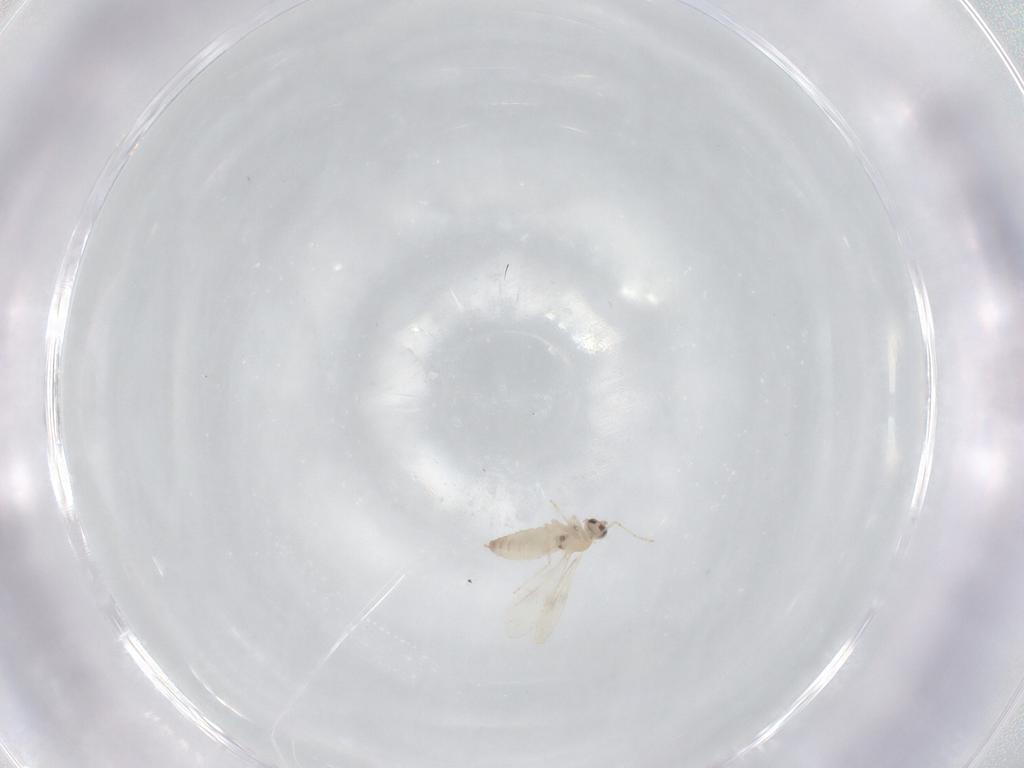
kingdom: Animalia
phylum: Arthropoda
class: Insecta
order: Diptera
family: Cecidomyiidae
